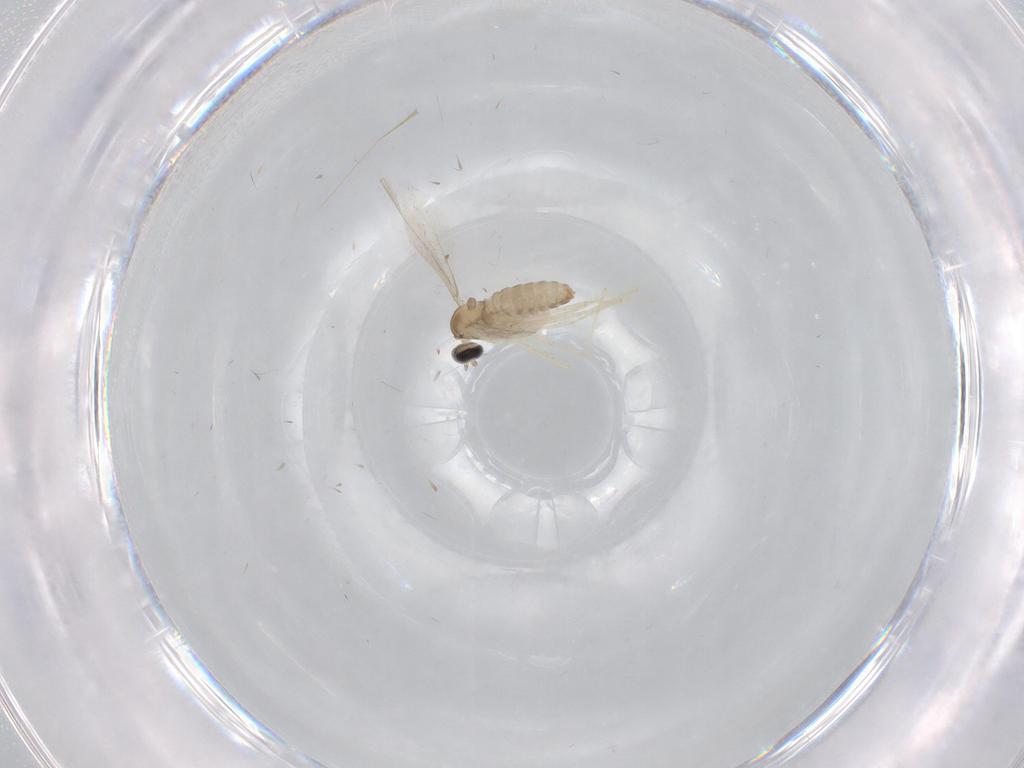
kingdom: Animalia
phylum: Arthropoda
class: Insecta
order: Diptera
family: Cecidomyiidae
